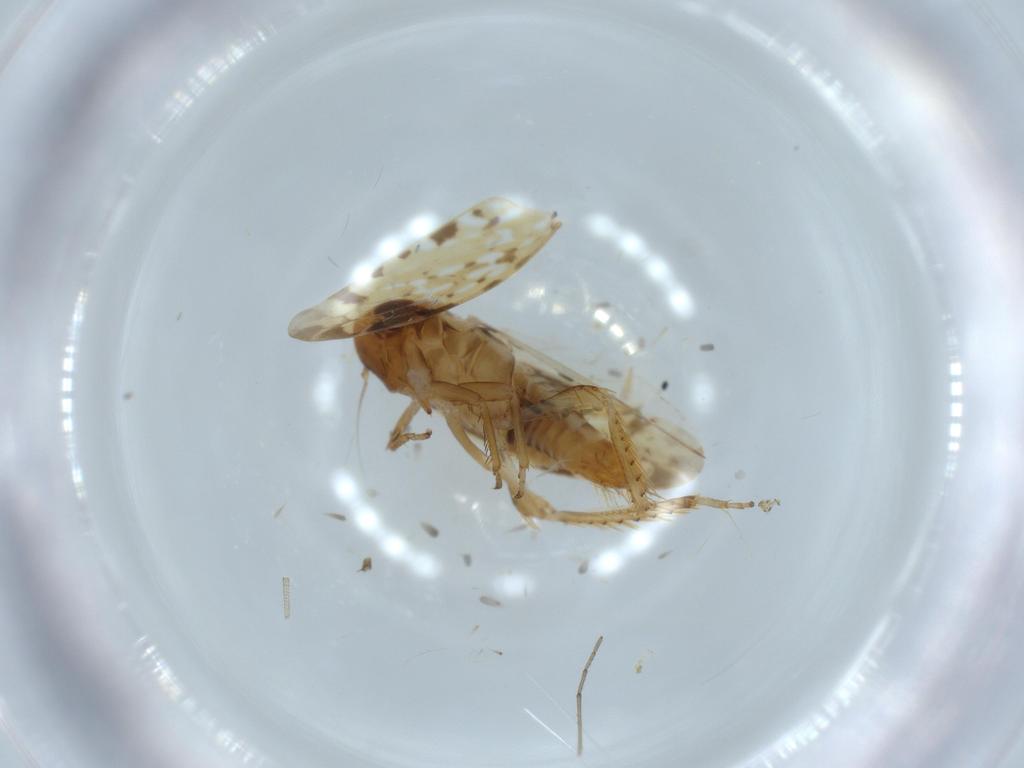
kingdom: Animalia
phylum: Arthropoda
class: Insecta
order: Hemiptera
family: Cicadellidae
